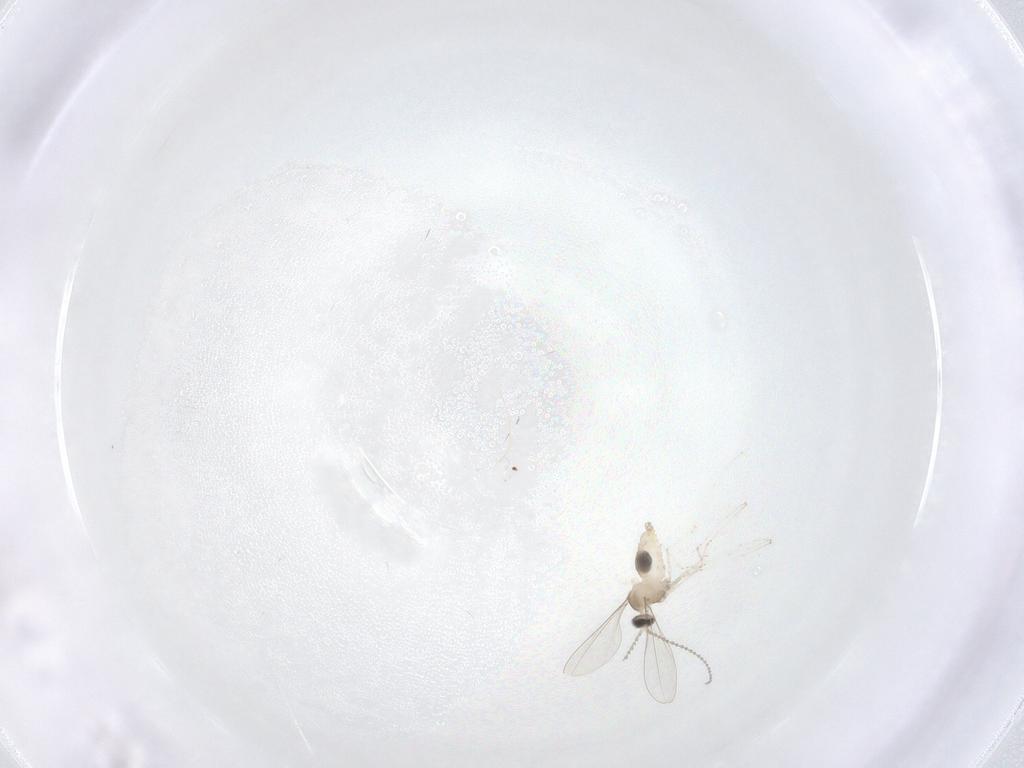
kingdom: Animalia
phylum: Arthropoda
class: Insecta
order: Diptera
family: Cecidomyiidae
